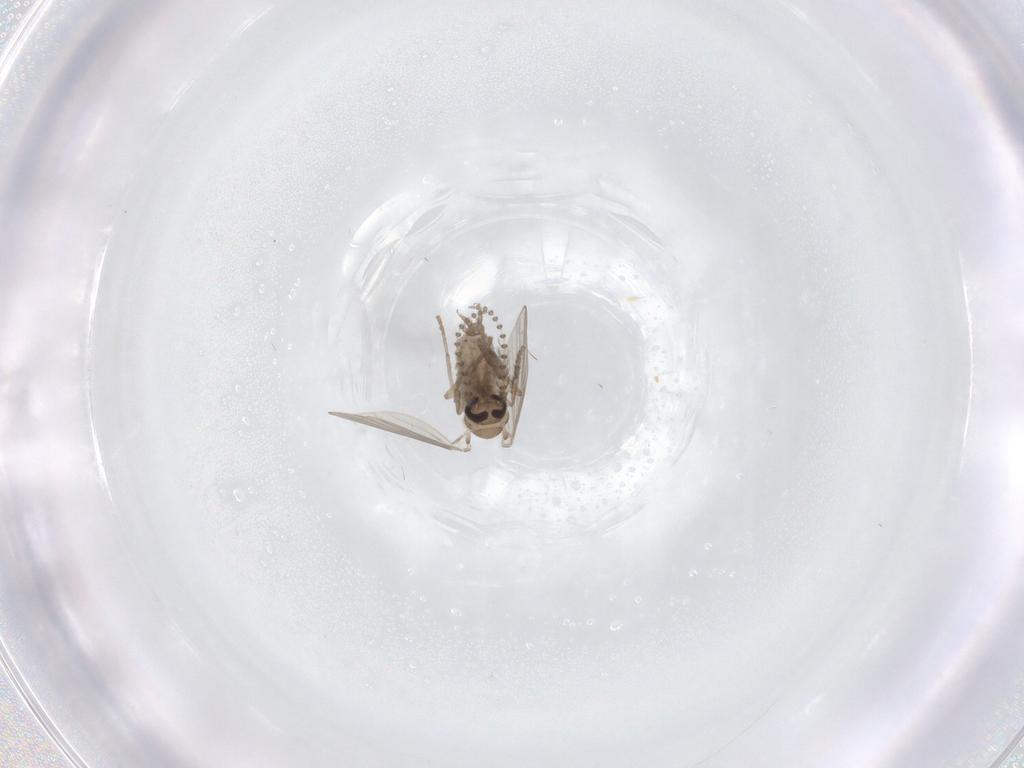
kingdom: Animalia
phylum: Arthropoda
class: Insecta
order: Diptera
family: Psychodidae
